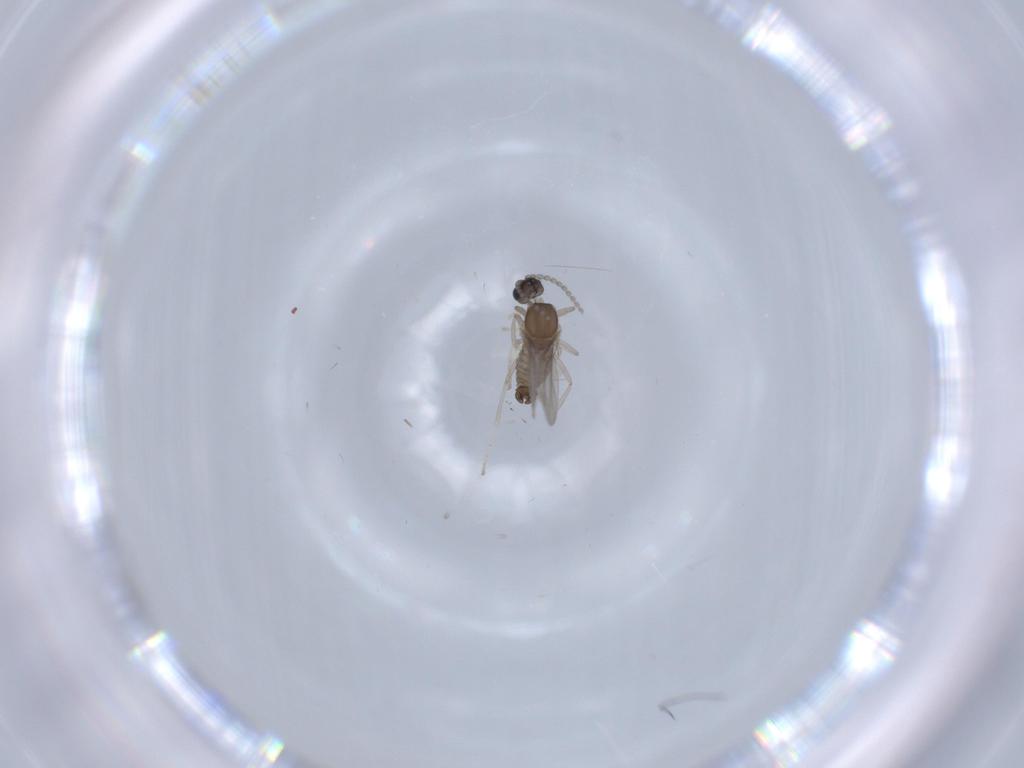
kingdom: Animalia
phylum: Arthropoda
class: Insecta
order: Diptera
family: Cecidomyiidae
